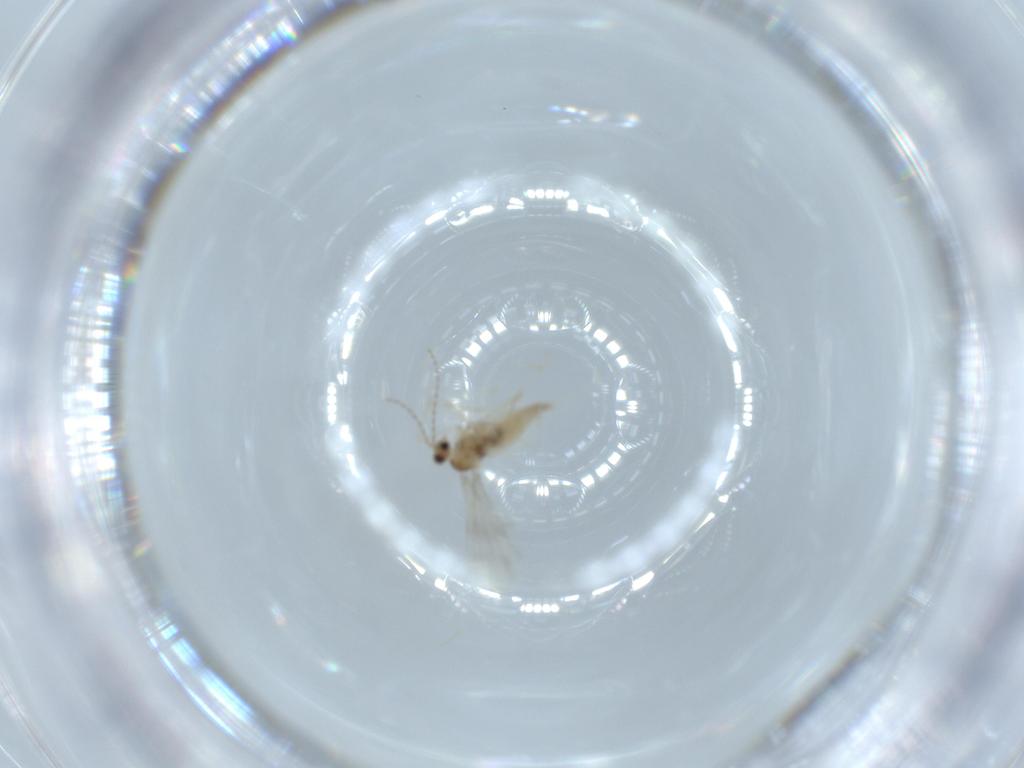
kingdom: Animalia
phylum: Arthropoda
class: Insecta
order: Diptera
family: Cecidomyiidae
